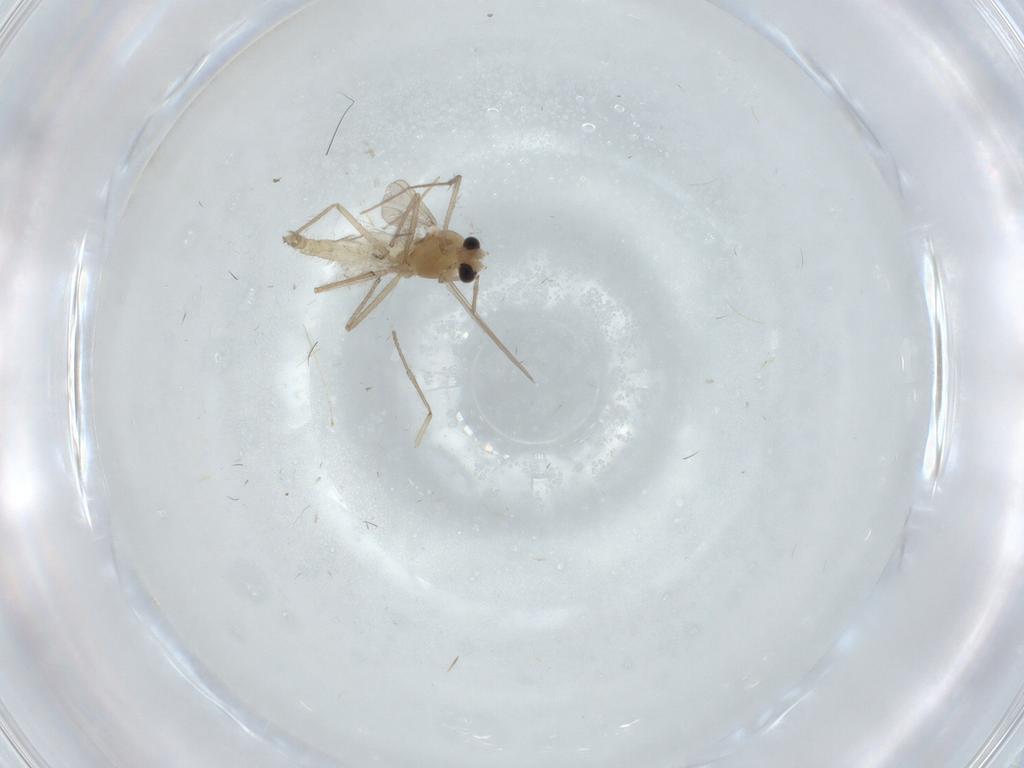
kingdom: Animalia
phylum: Arthropoda
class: Insecta
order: Diptera
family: Chironomidae
